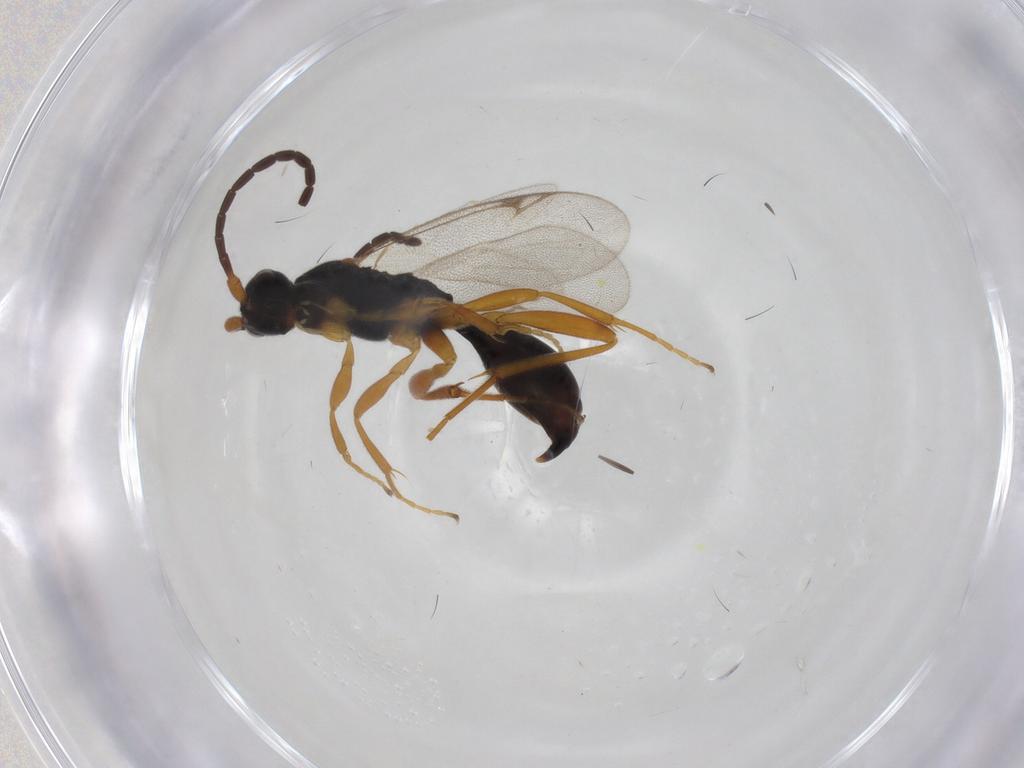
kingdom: Animalia
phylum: Arthropoda
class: Insecta
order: Hymenoptera
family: Proctotrupidae
